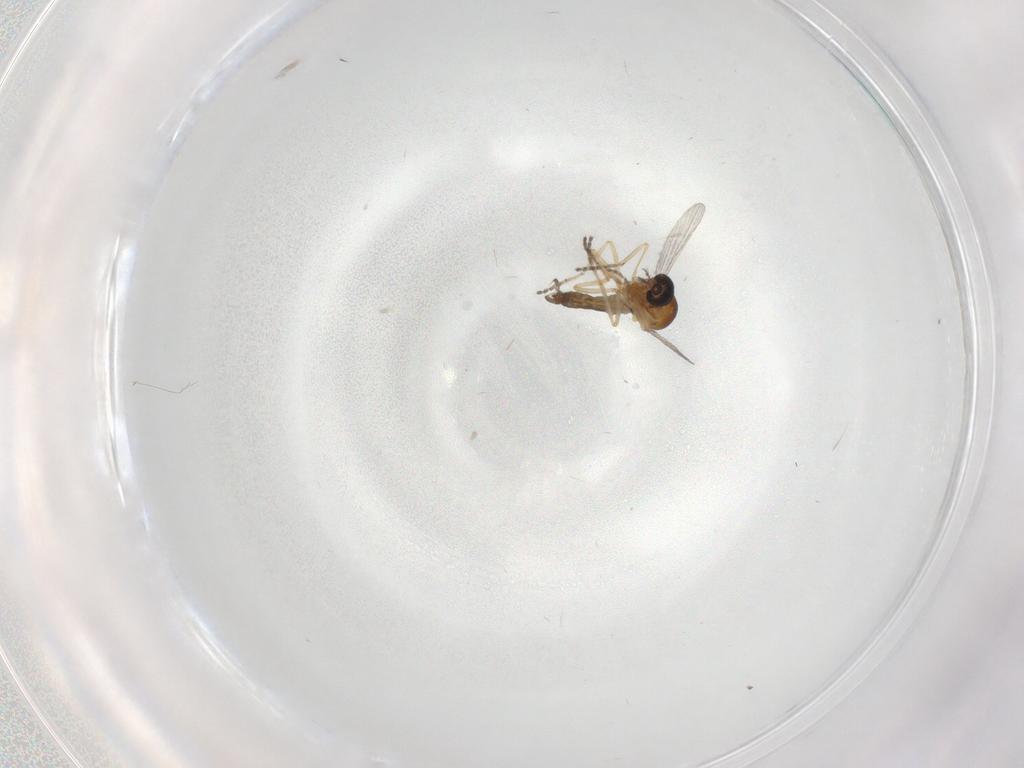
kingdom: Animalia
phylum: Arthropoda
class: Insecta
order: Diptera
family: Ceratopogonidae
